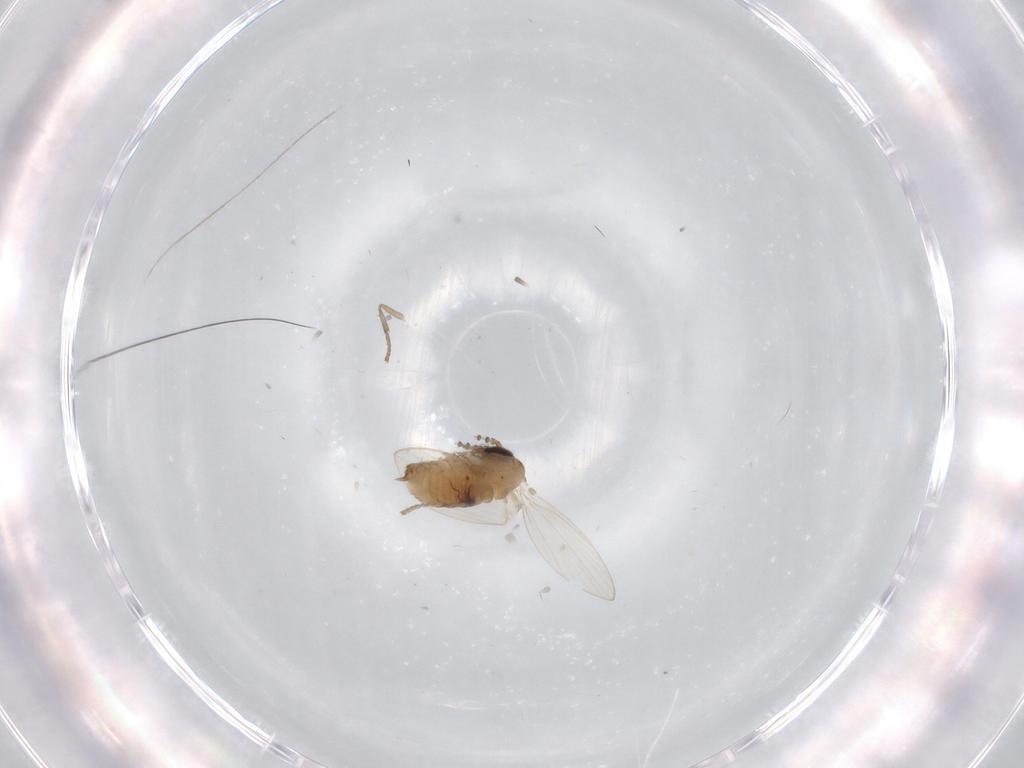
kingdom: Animalia
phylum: Arthropoda
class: Insecta
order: Diptera
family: Psychodidae
